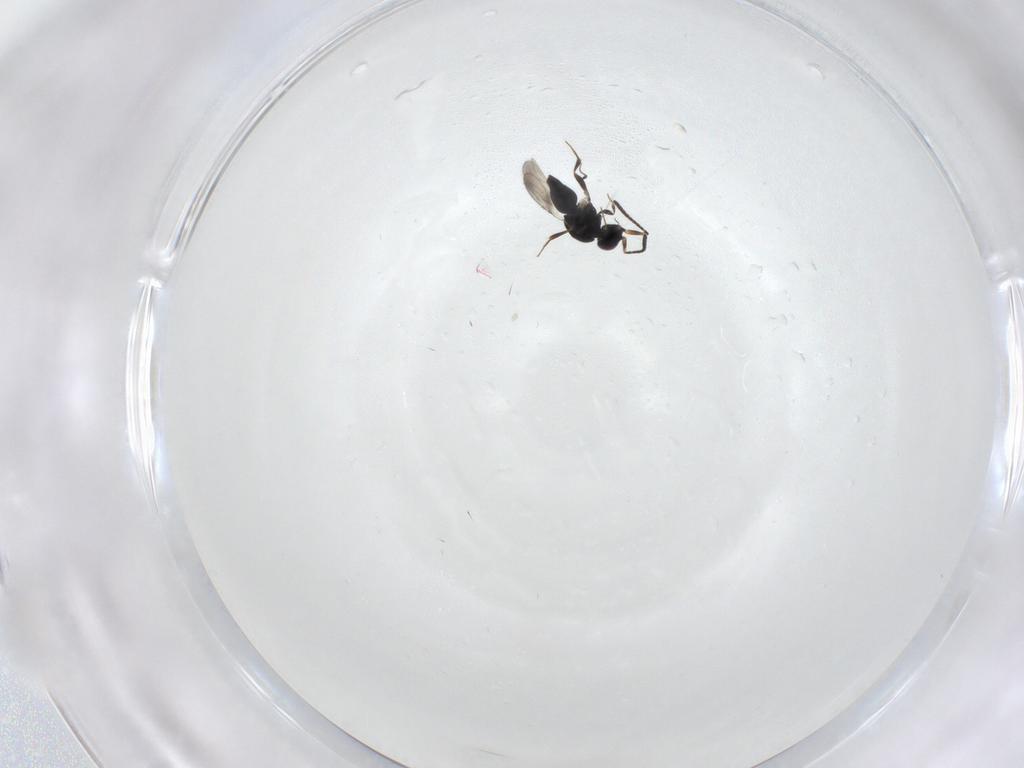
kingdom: Animalia
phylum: Arthropoda
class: Insecta
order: Hymenoptera
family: Ceraphronidae
